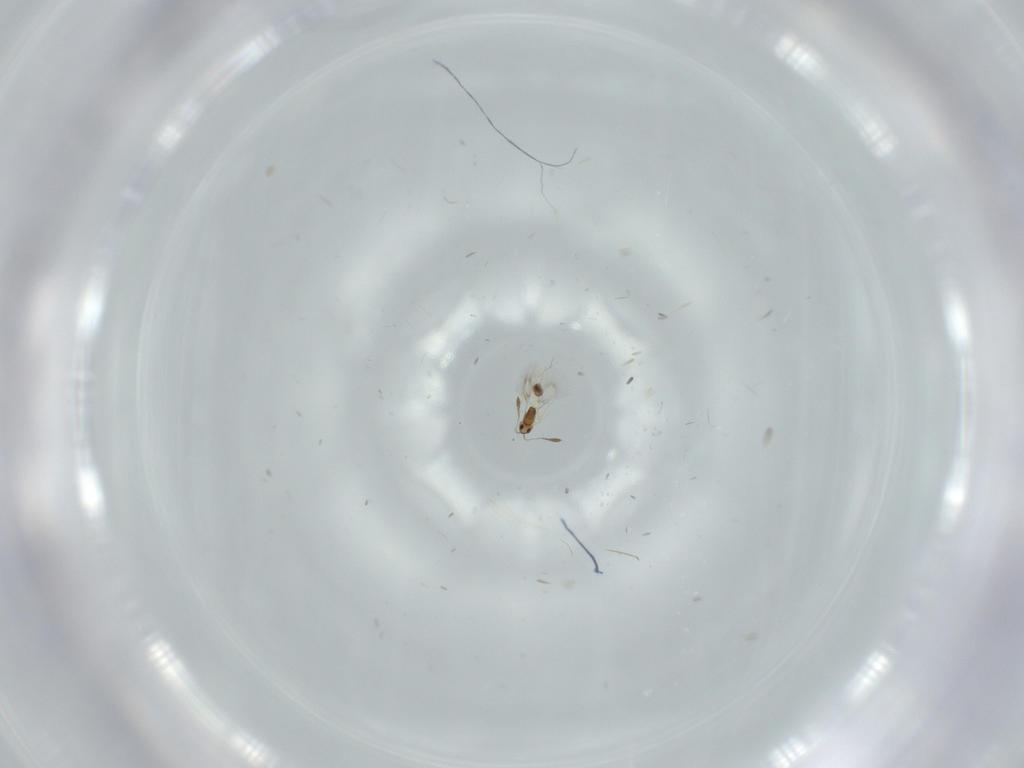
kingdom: Animalia
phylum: Arthropoda
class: Insecta
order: Hymenoptera
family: Mymarommatidae
